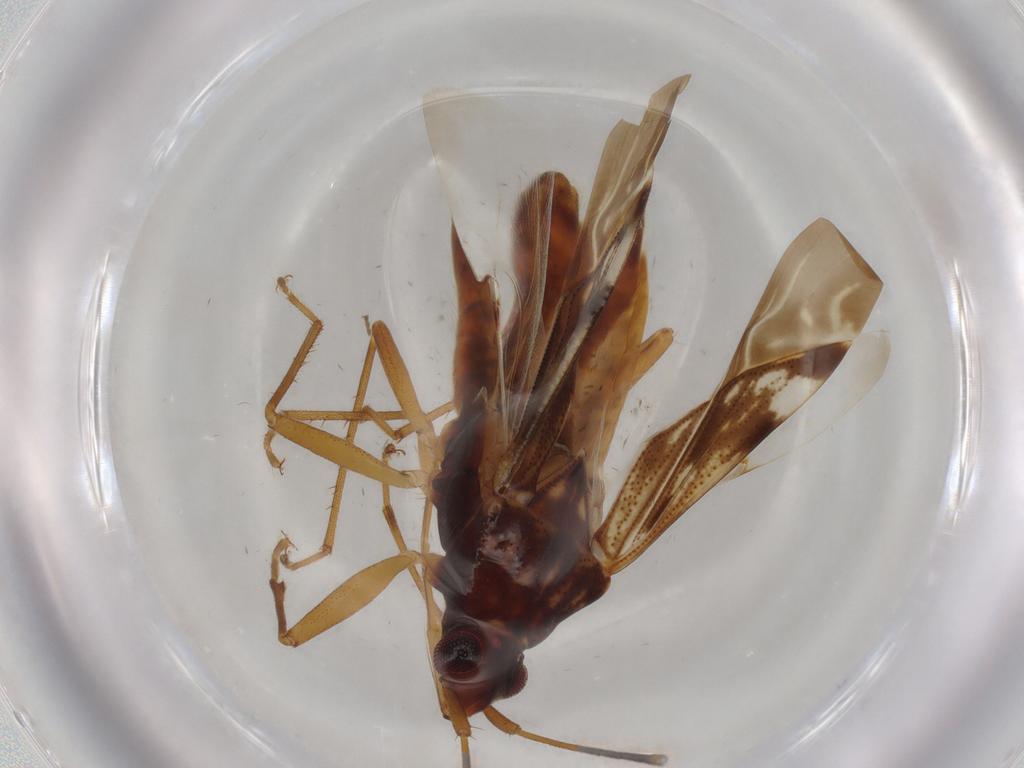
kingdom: Animalia
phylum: Arthropoda
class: Insecta
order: Hemiptera
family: Rhyparochromidae
